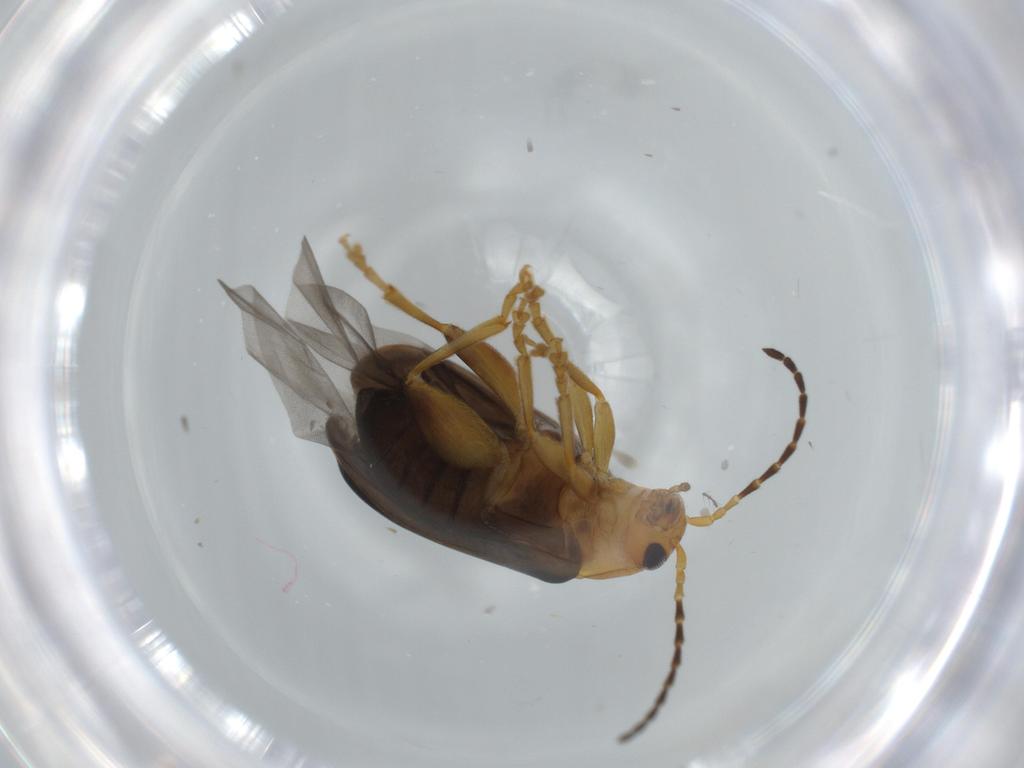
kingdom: Animalia
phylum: Arthropoda
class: Insecta
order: Coleoptera
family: Chrysomelidae
